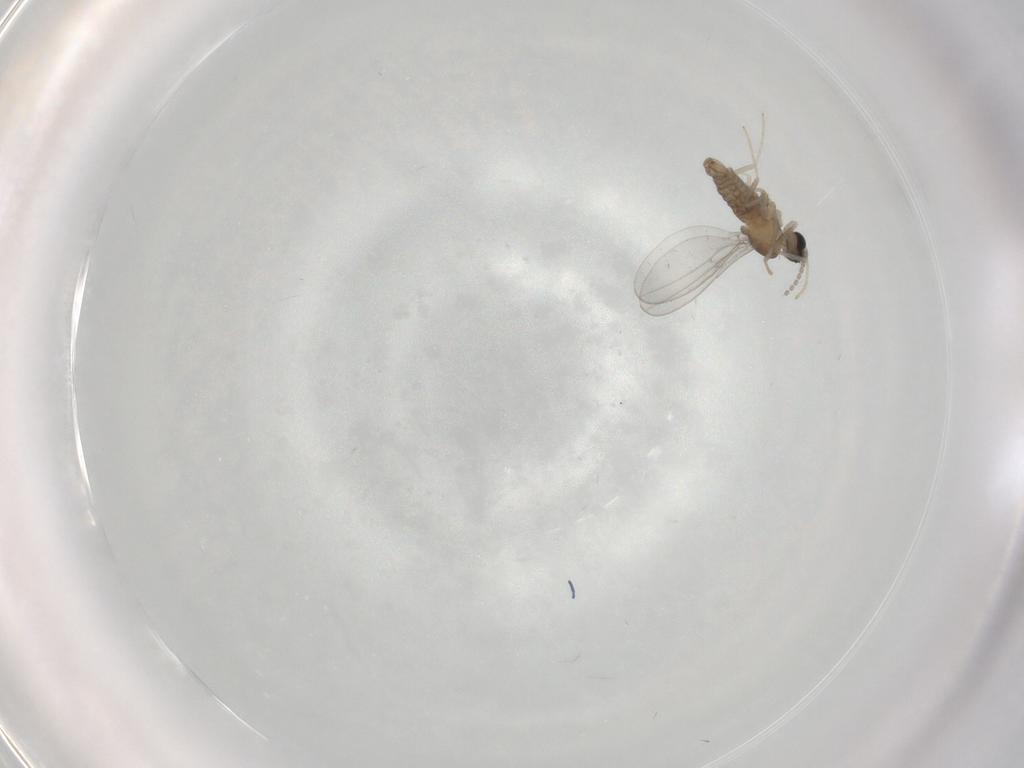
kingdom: Animalia
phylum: Arthropoda
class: Insecta
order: Diptera
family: Cecidomyiidae
